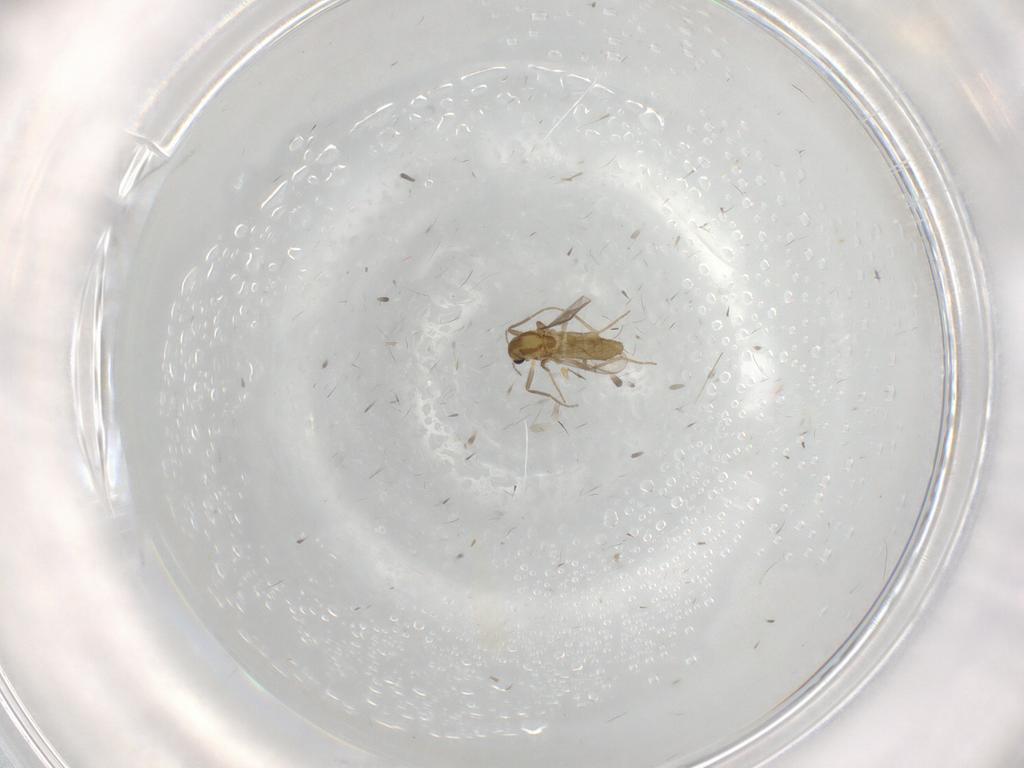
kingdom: Animalia
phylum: Arthropoda
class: Insecta
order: Diptera
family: Chironomidae
